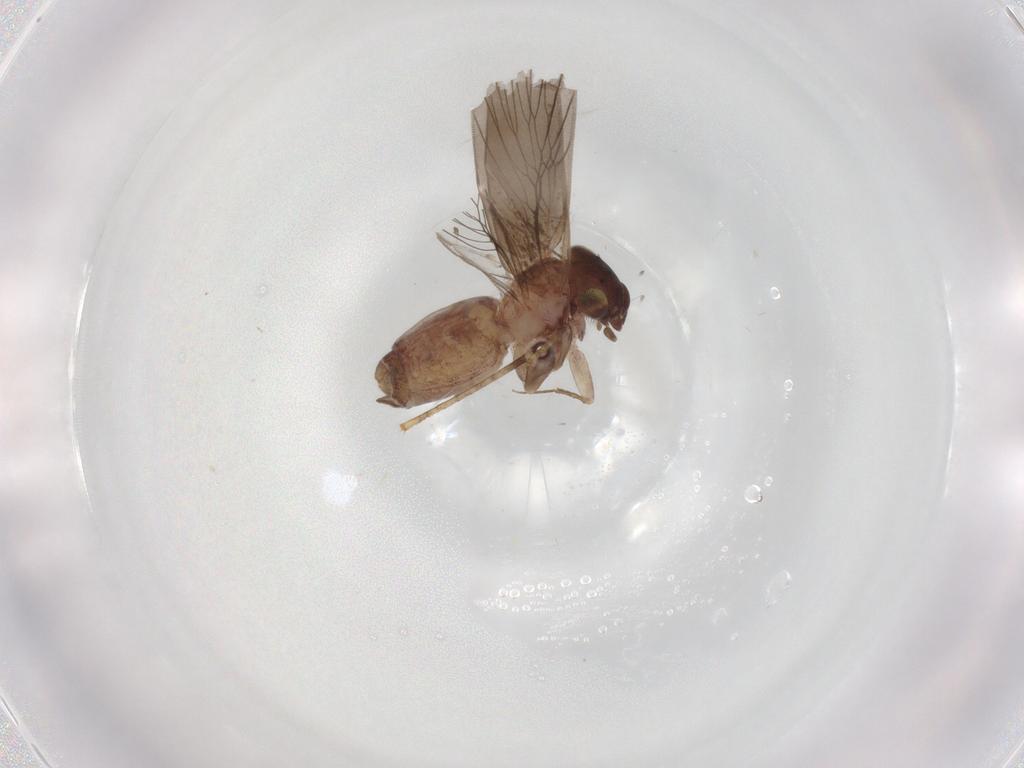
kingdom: Animalia
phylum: Arthropoda
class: Insecta
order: Psocodea
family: Lepidopsocidae
